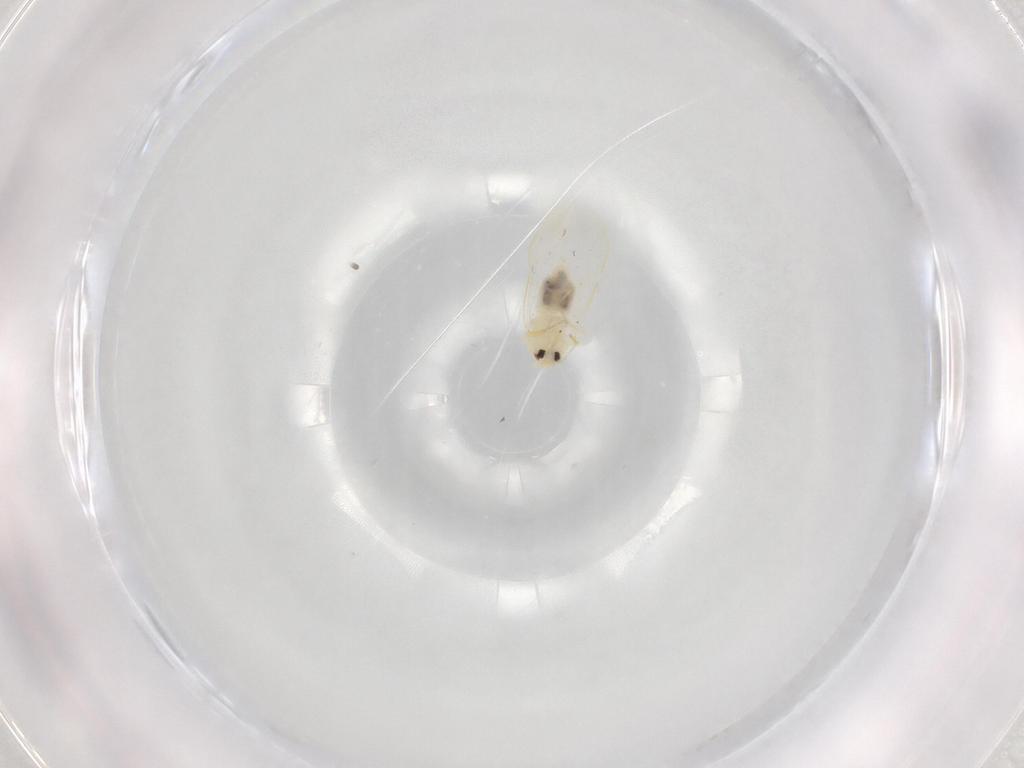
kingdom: Animalia
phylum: Arthropoda
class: Insecta
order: Hemiptera
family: Aleyrodidae
